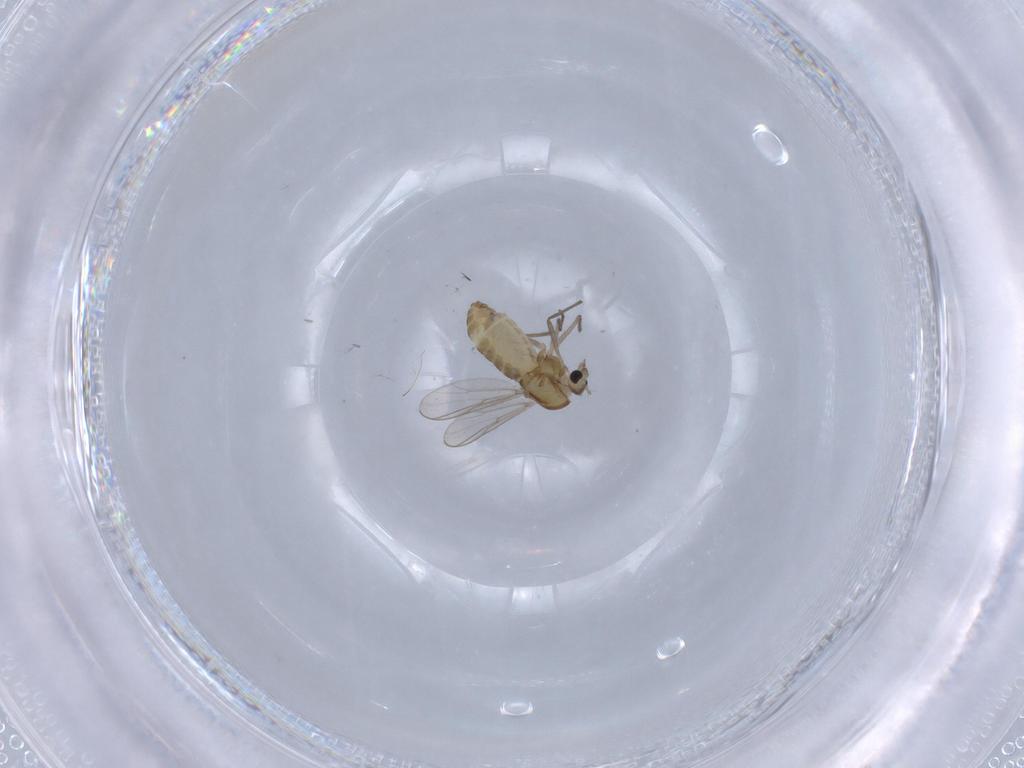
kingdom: Animalia
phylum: Arthropoda
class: Insecta
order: Diptera
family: Chironomidae
